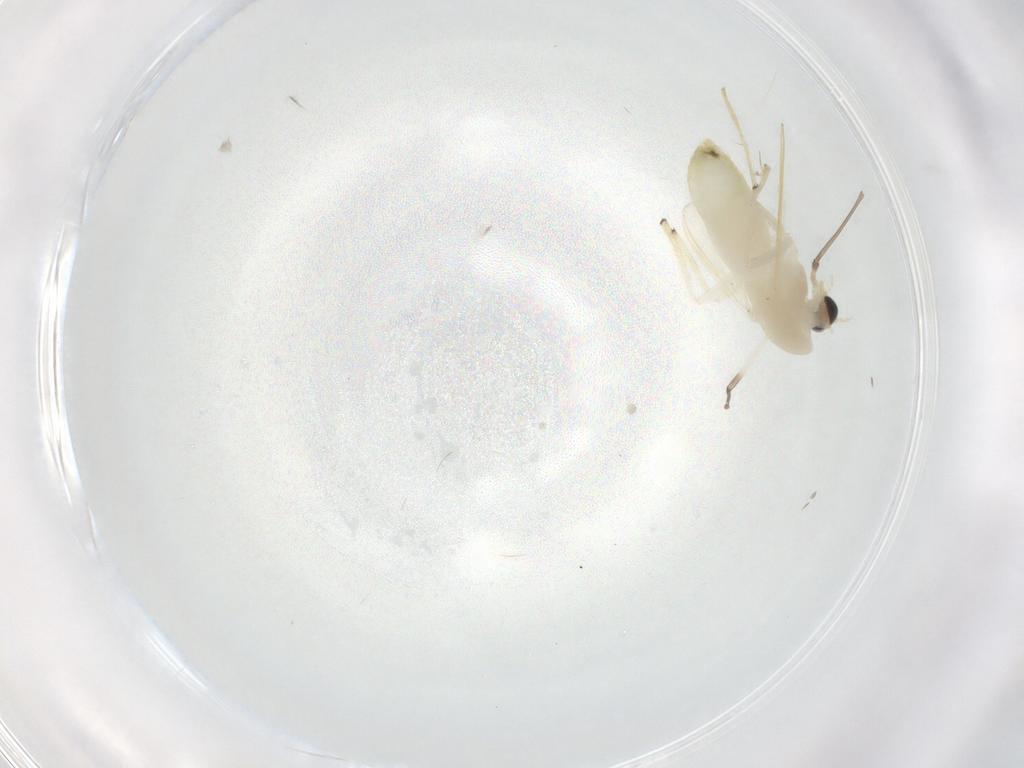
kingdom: Animalia
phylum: Arthropoda
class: Insecta
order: Diptera
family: Chironomidae
